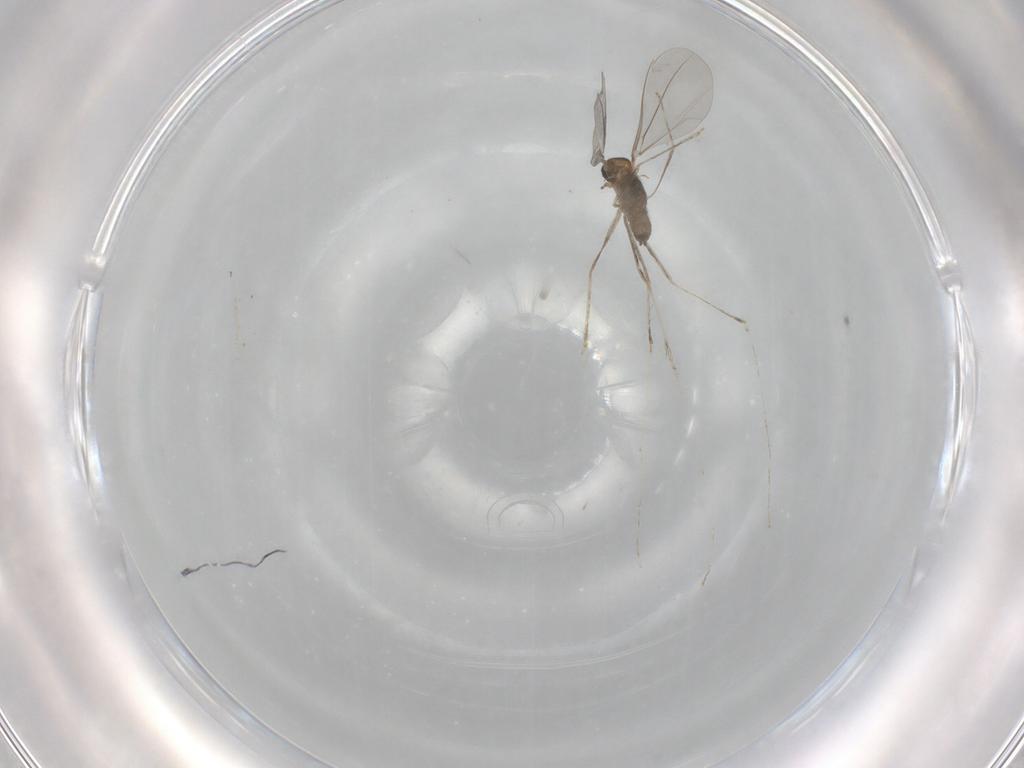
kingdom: Animalia
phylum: Arthropoda
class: Insecta
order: Diptera
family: Cecidomyiidae
